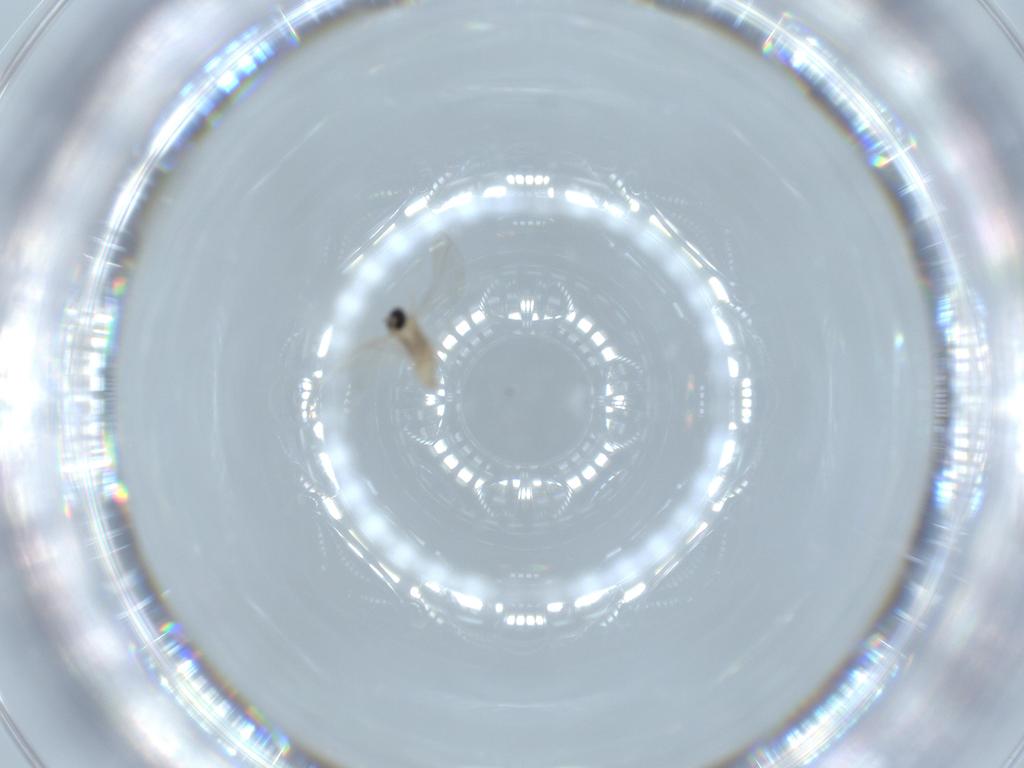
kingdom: Animalia
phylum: Arthropoda
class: Insecta
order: Diptera
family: Cecidomyiidae
